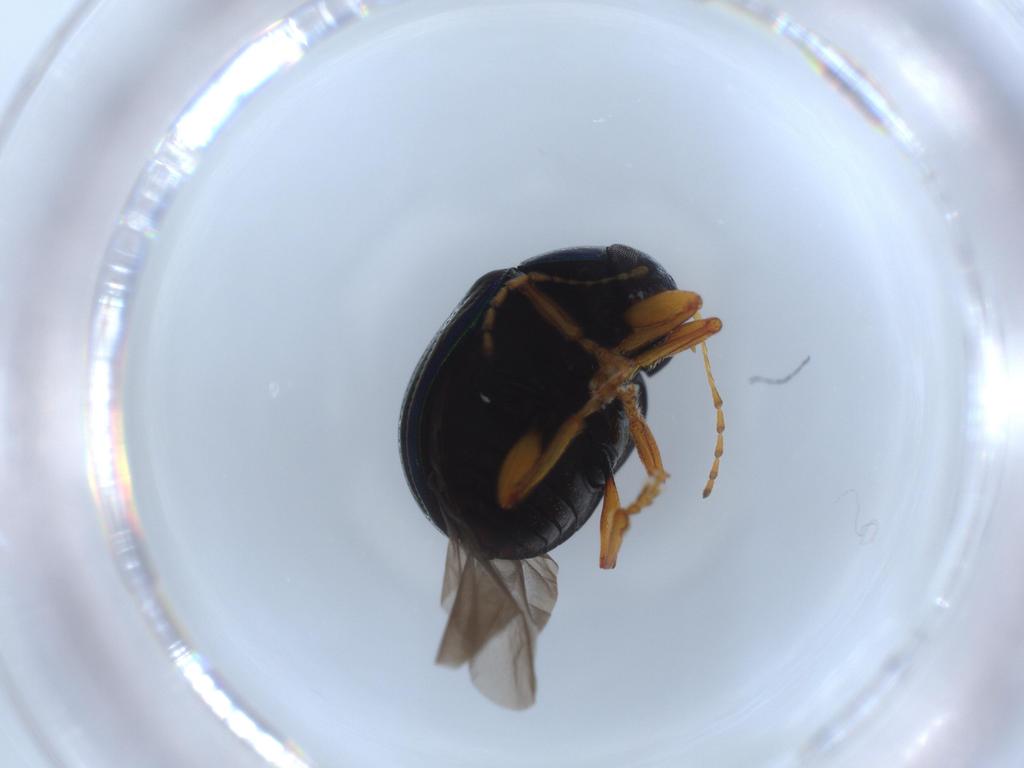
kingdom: Animalia
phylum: Arthropoda
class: Insecta
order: Coleoptera
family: Chrysomelidae
